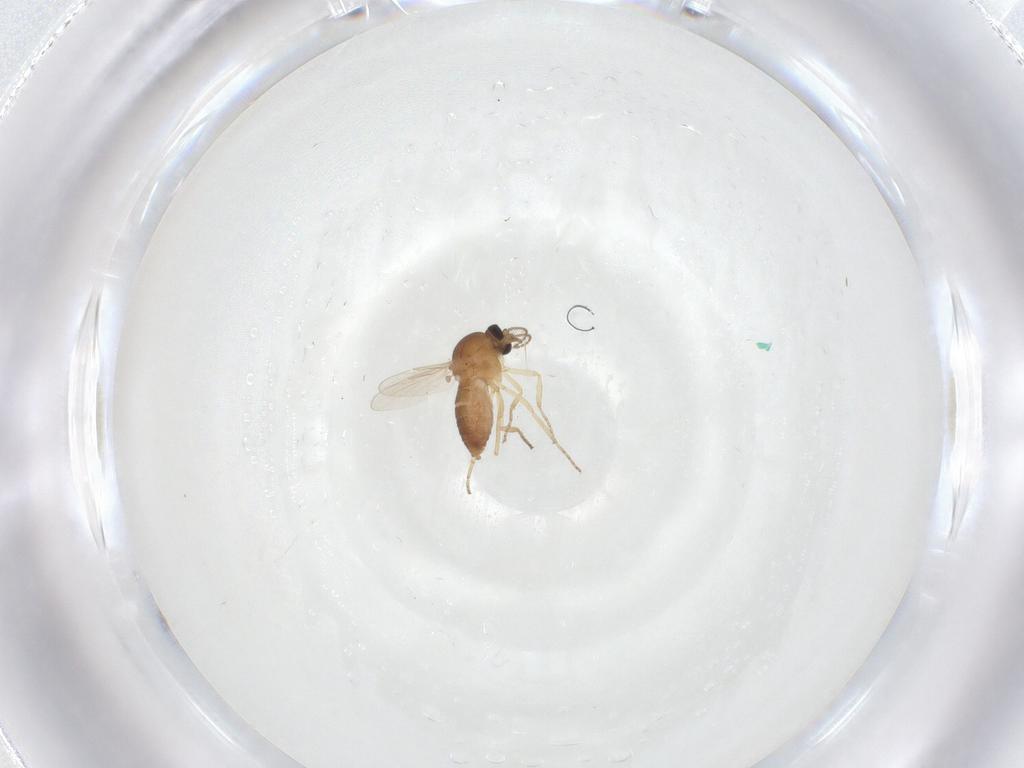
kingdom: Animalia
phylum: Arthropoda
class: Insecta
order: Diptera
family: Ceratopogonidae
